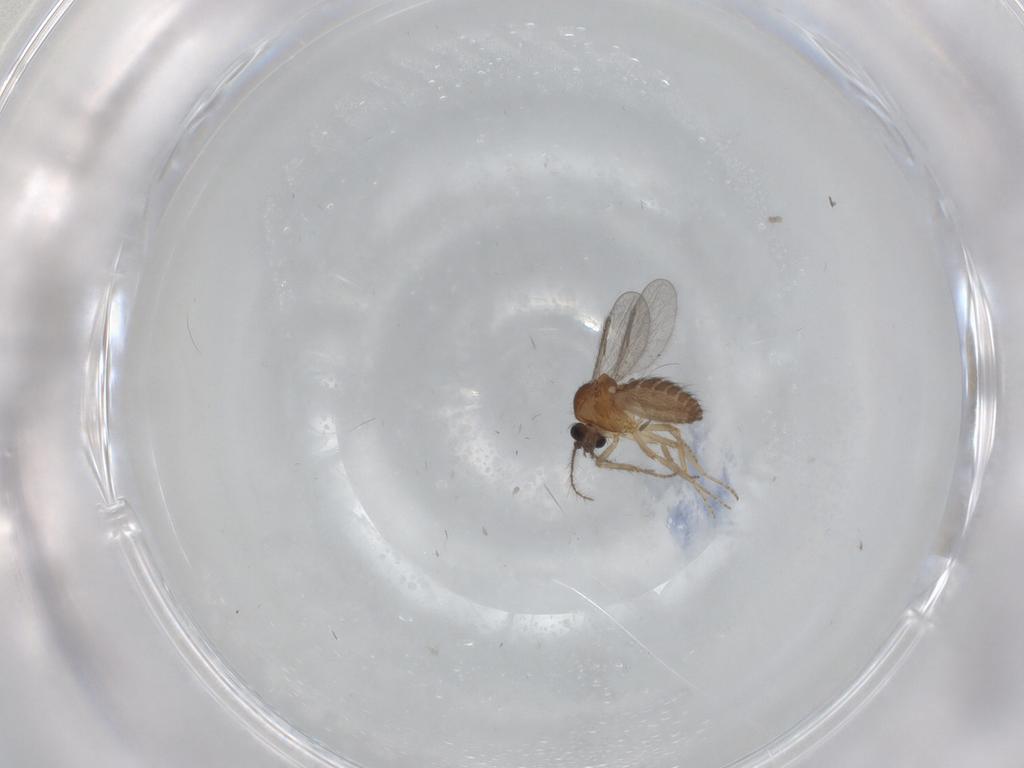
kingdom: Animalia
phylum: Arthropoda
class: Insecta
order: Diptera
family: Ceratopogonidae
